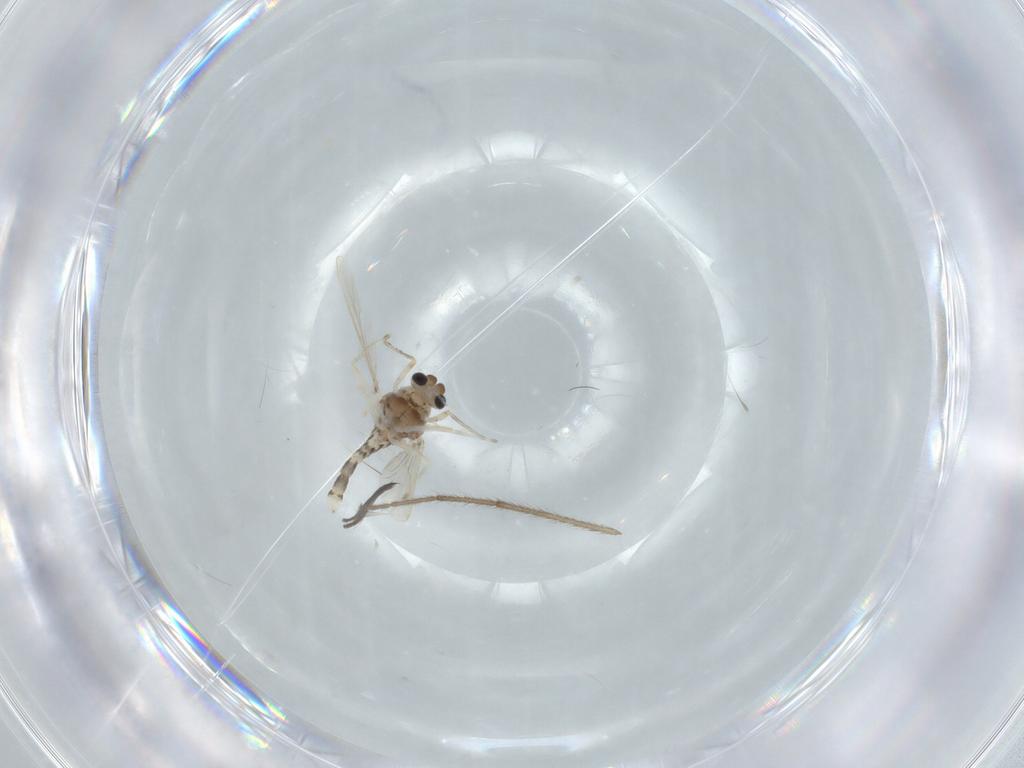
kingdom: Animalia
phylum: Arthropoda
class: Insecta
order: Diptera
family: Chironomidae
